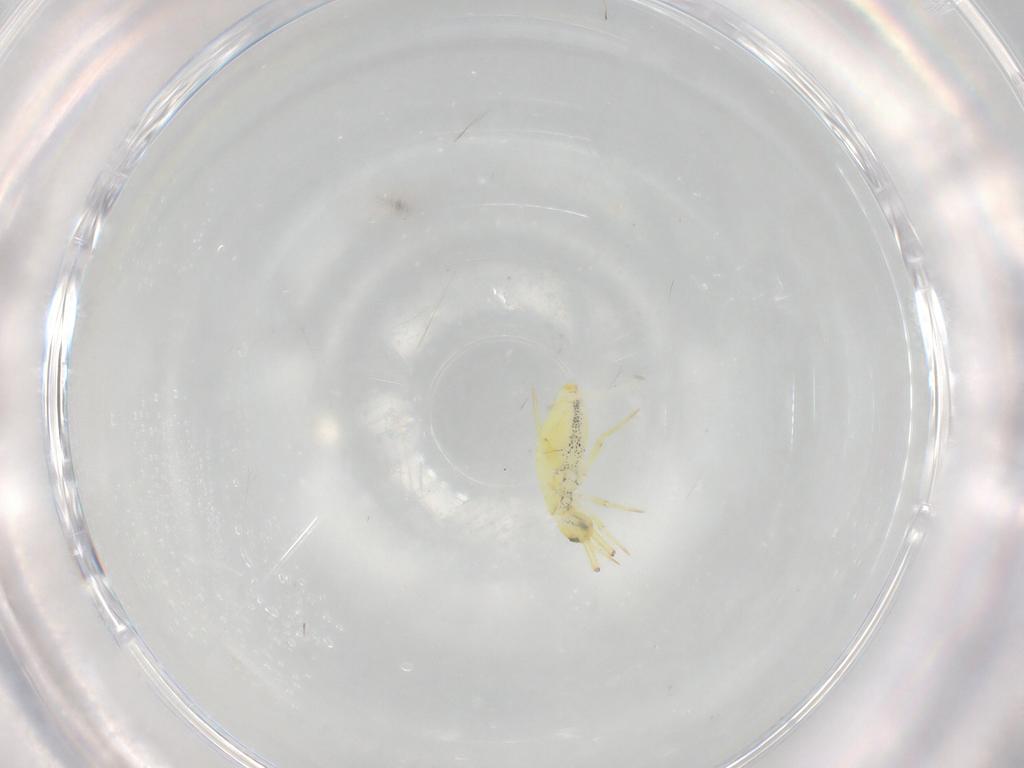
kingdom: Animalia
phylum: Arthropoda
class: Collembola
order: Entomobryomorpha
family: Entomobryidae
